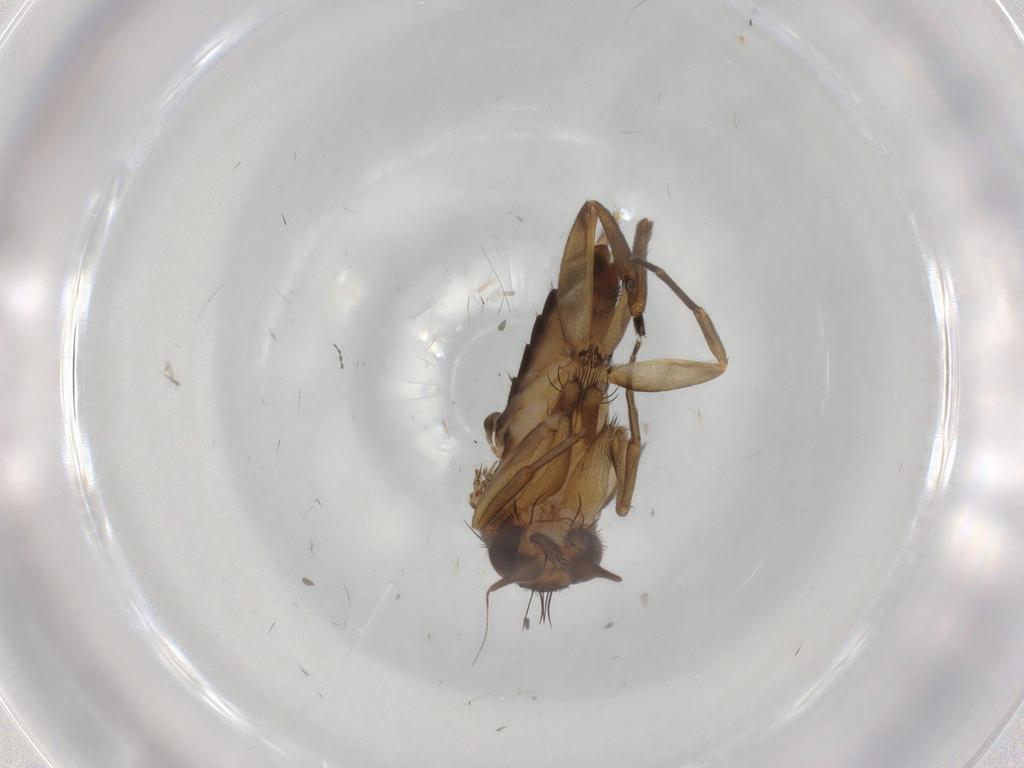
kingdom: Animalia
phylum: Arthropoda
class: Insecta
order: Diptera
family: Phoridae
